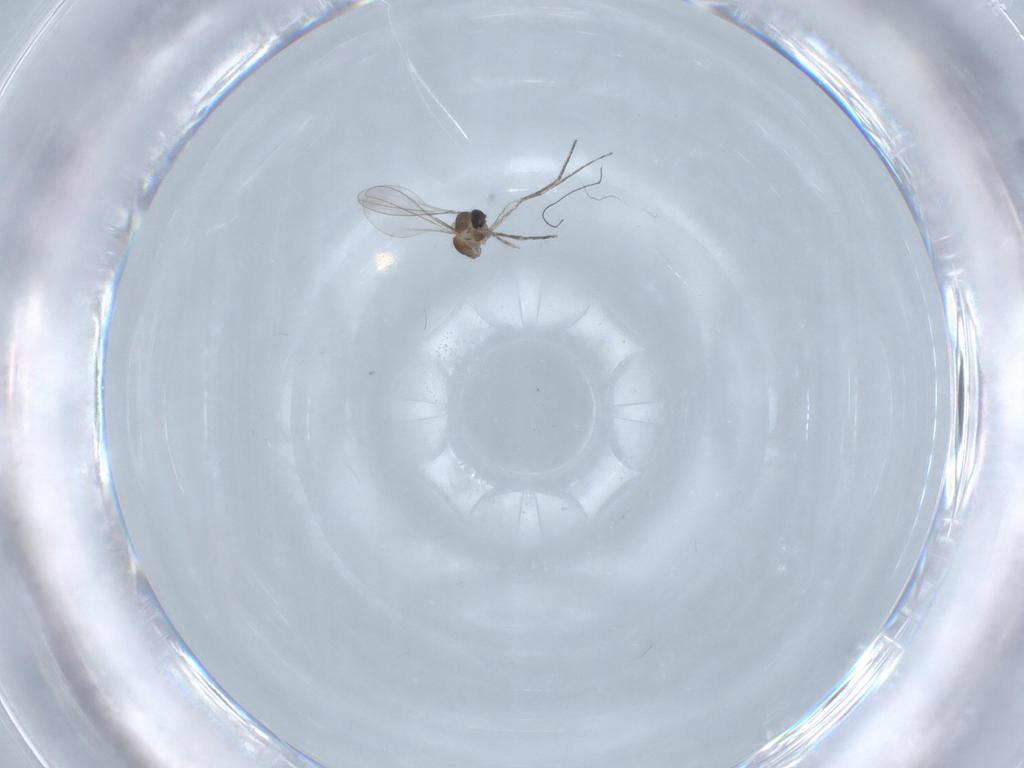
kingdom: Animalia
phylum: Arthropoda
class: Insecta
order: Diptera
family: Cecidomyiidae
